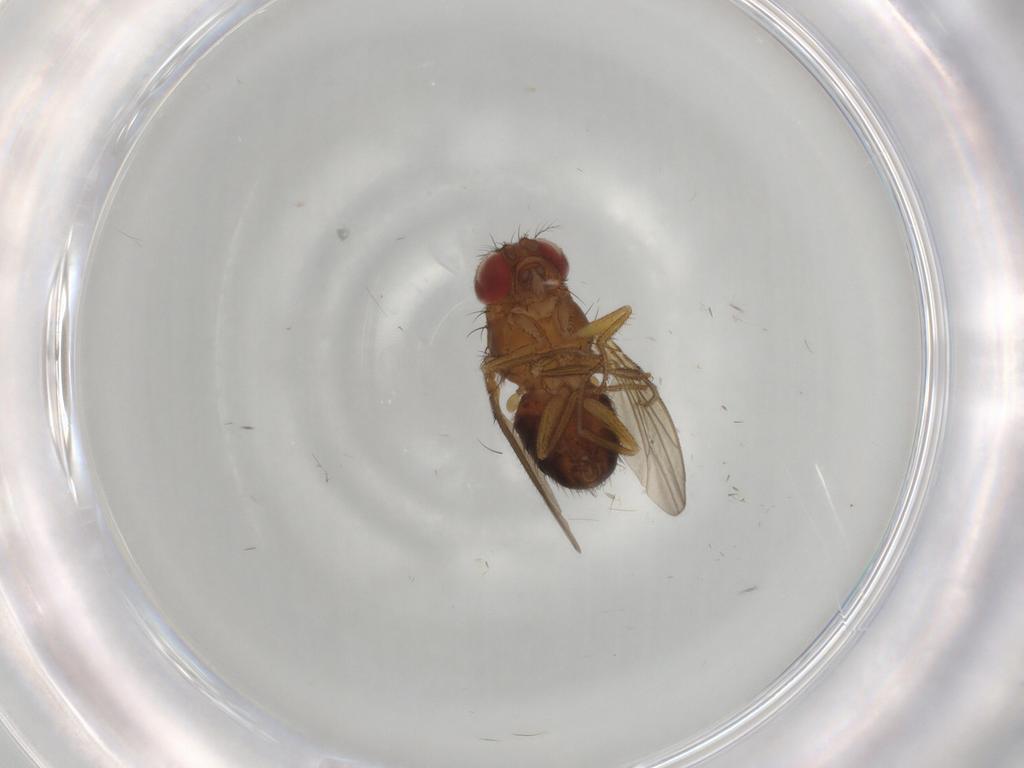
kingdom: Animalia
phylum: Arthropoda
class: Insecta
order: Diptera
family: Drosophilidae
